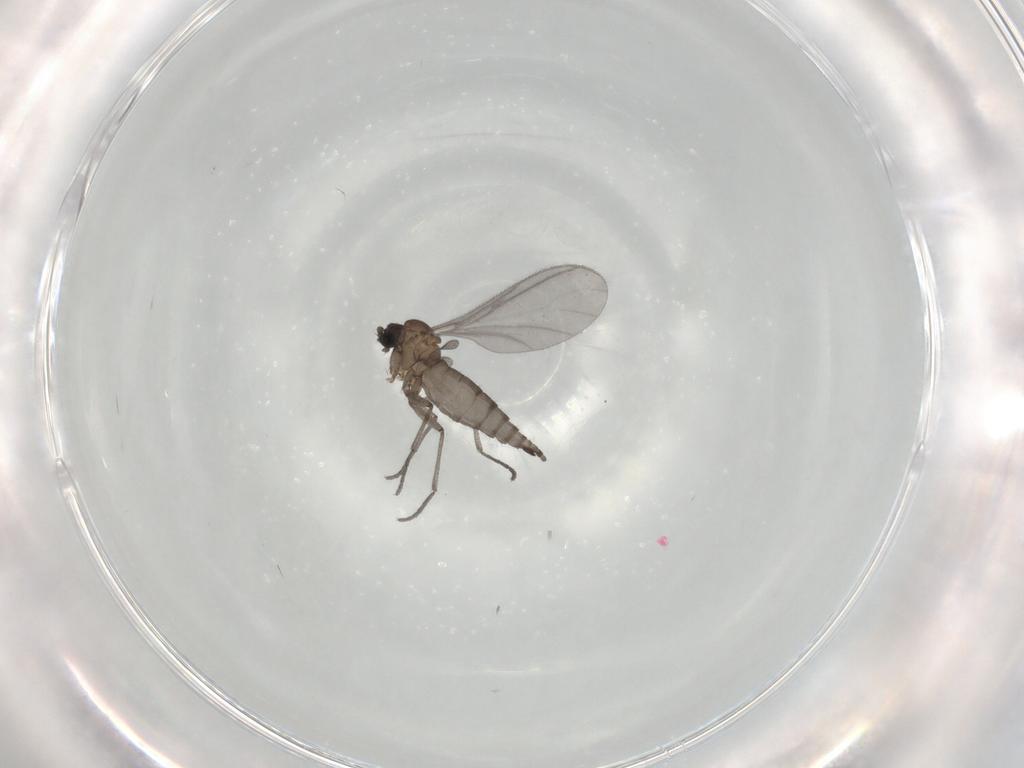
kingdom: Animalia
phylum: Arthropoda
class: Insecta
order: Diptera
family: Sciaridae
